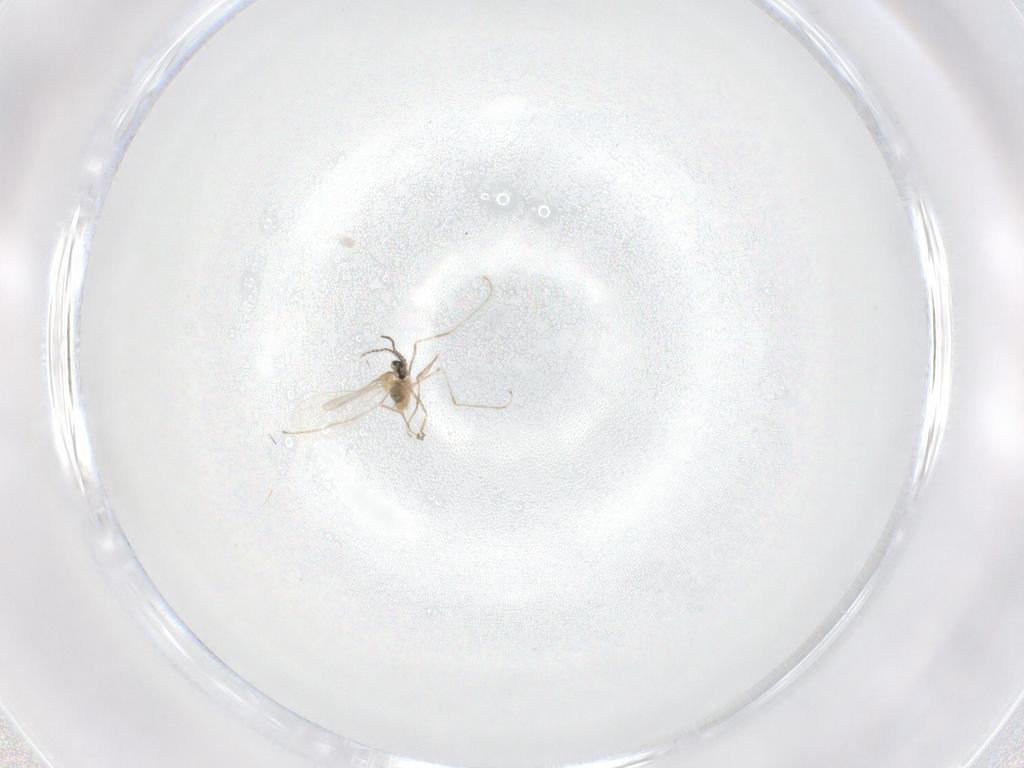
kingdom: Animalia
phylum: Arthropoda
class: Insecta
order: Diptera
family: Cecidomyiidae
